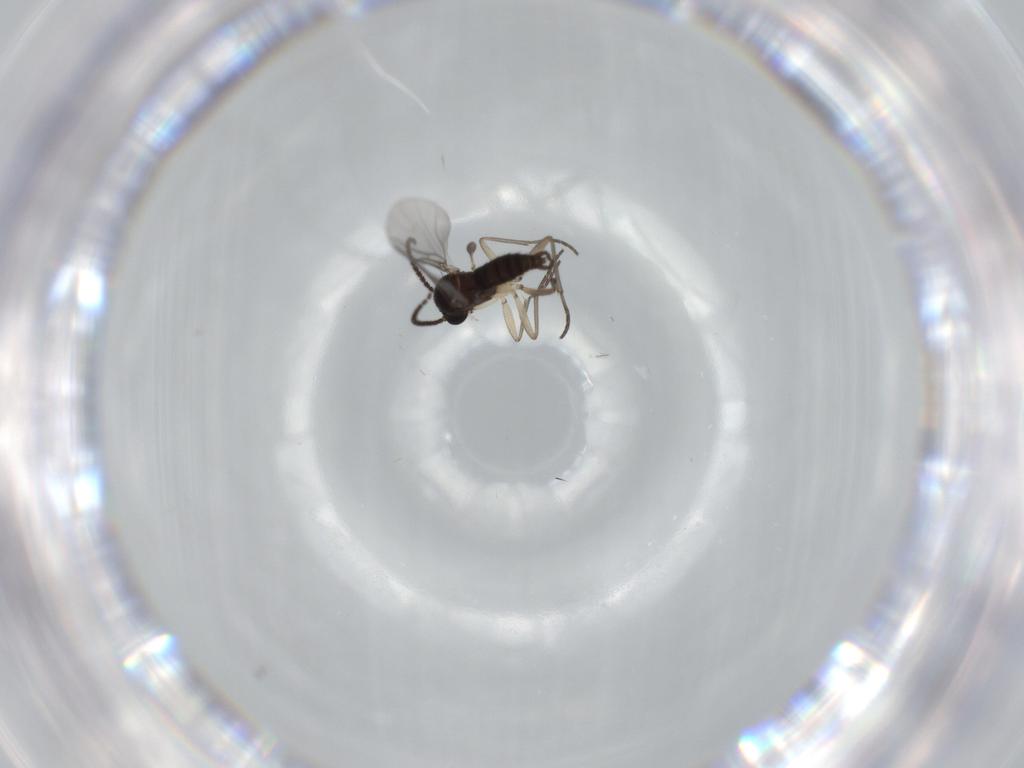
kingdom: Animalia
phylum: Arthropoda
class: Insecta
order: Diptera
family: Sciaridae
